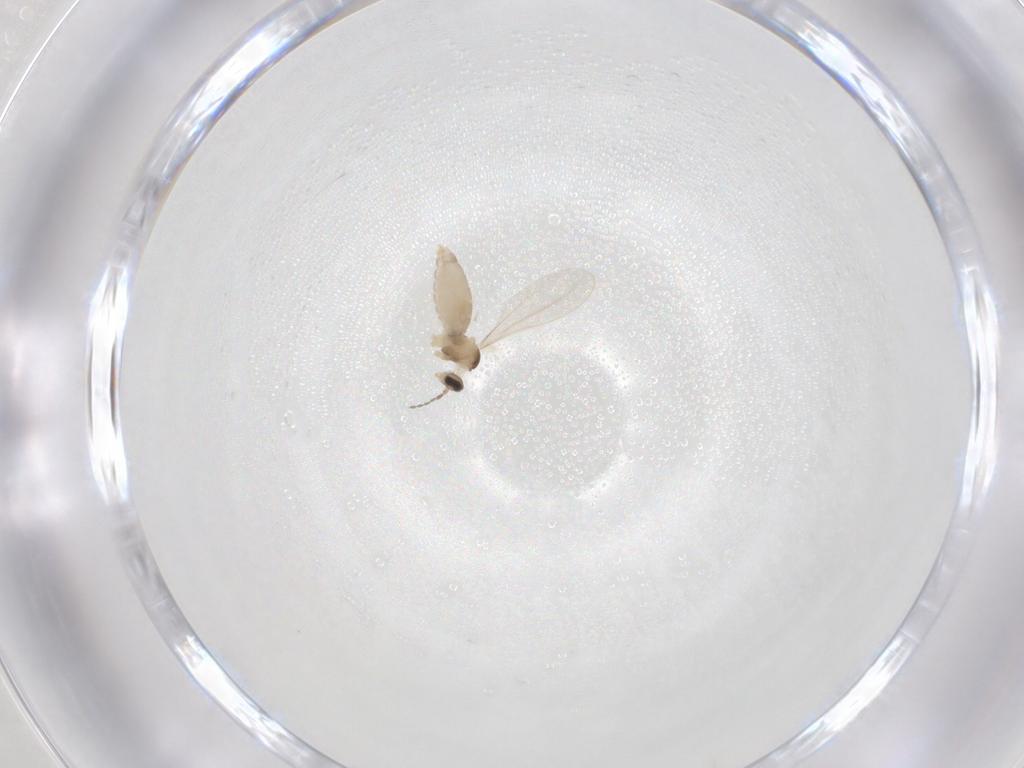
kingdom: Animalia
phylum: Arthropoda
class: Insecta
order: Diptera
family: Cecidomyiidae
